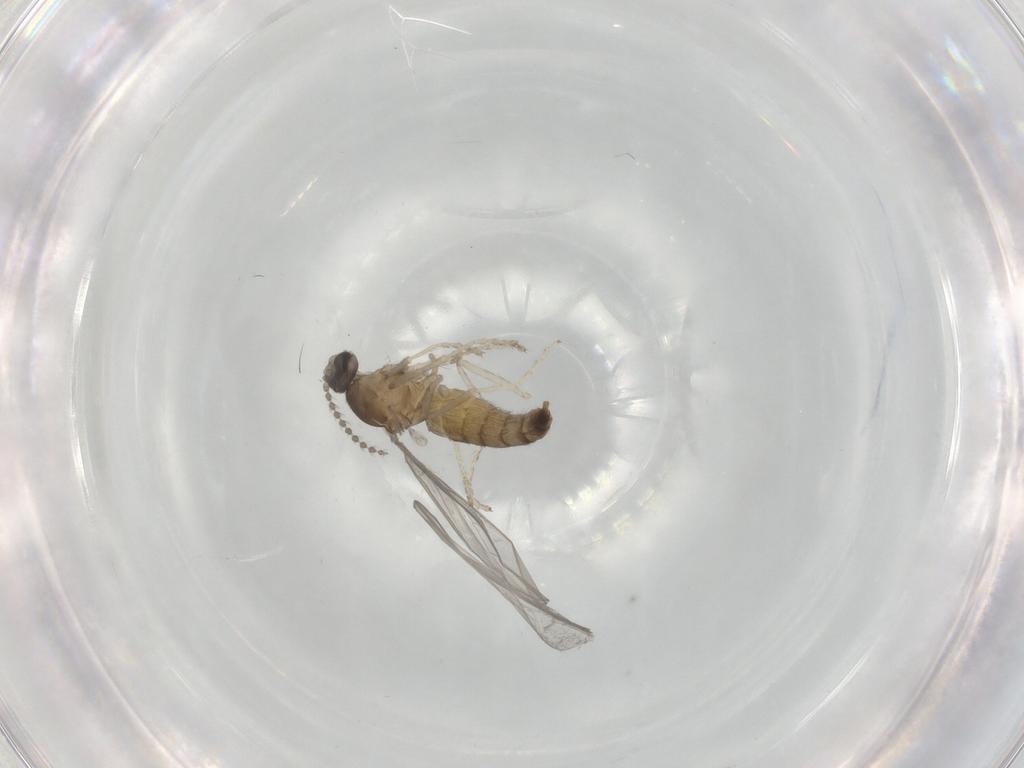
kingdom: Animalia
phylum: Arthropoda
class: Insecta
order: Diptera
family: Cecidomyiidae
